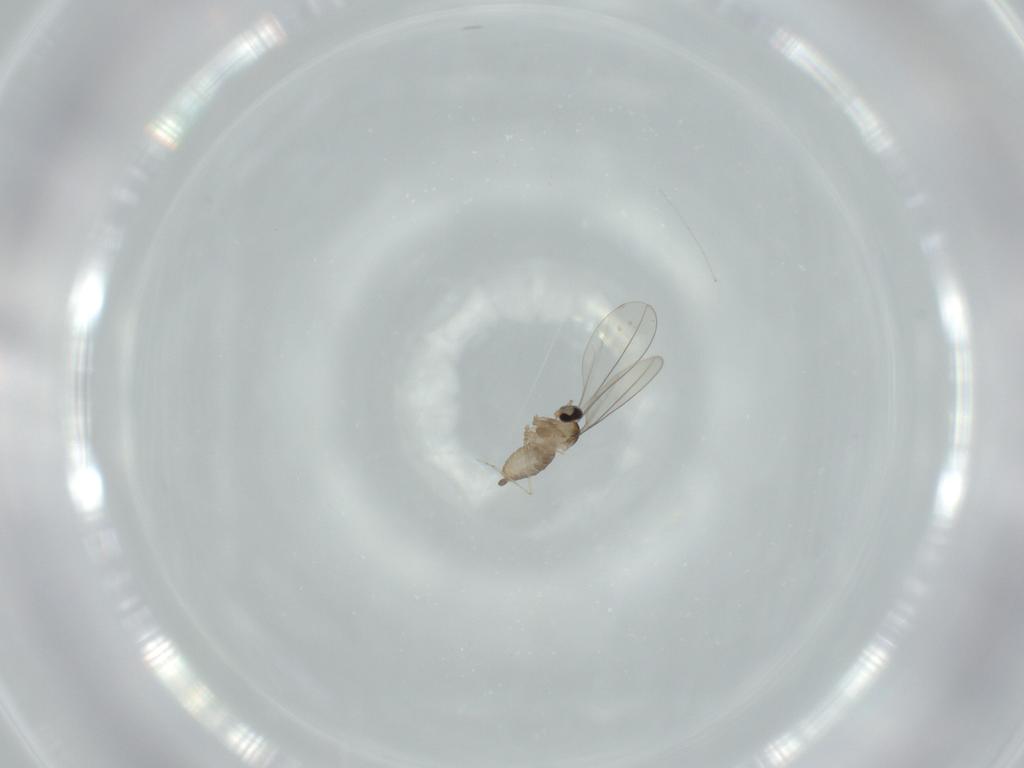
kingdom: Animalia
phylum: Arthropoda
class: Insecta
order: Diptera
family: Cecidomyiidae
